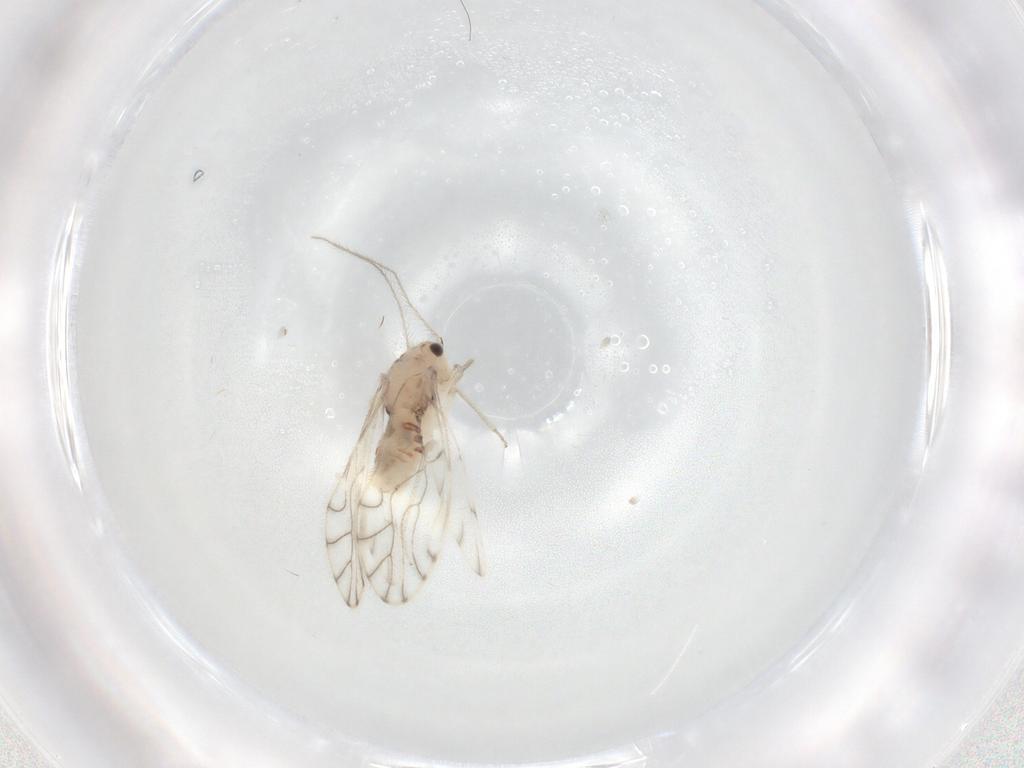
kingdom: Animalia
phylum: Arthropoda
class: Insecta
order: Psocodea
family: Philotarsidae
